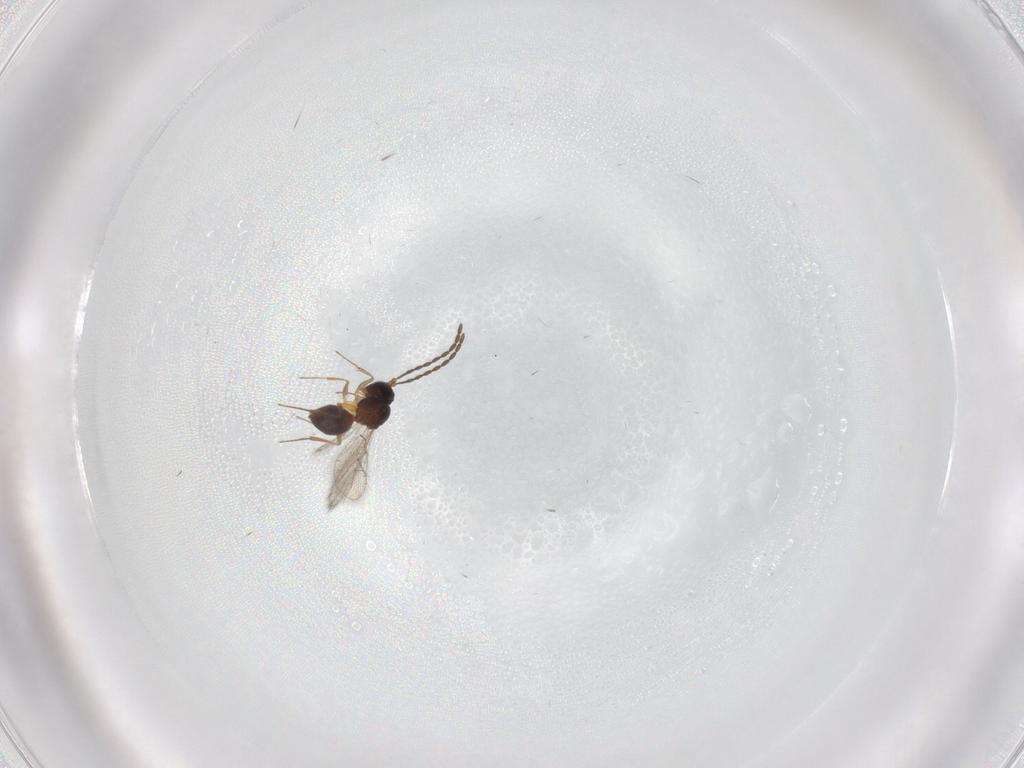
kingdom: Animalia
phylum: Arthropoda
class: Insecta
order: Hymenoptera
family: Figitidae
